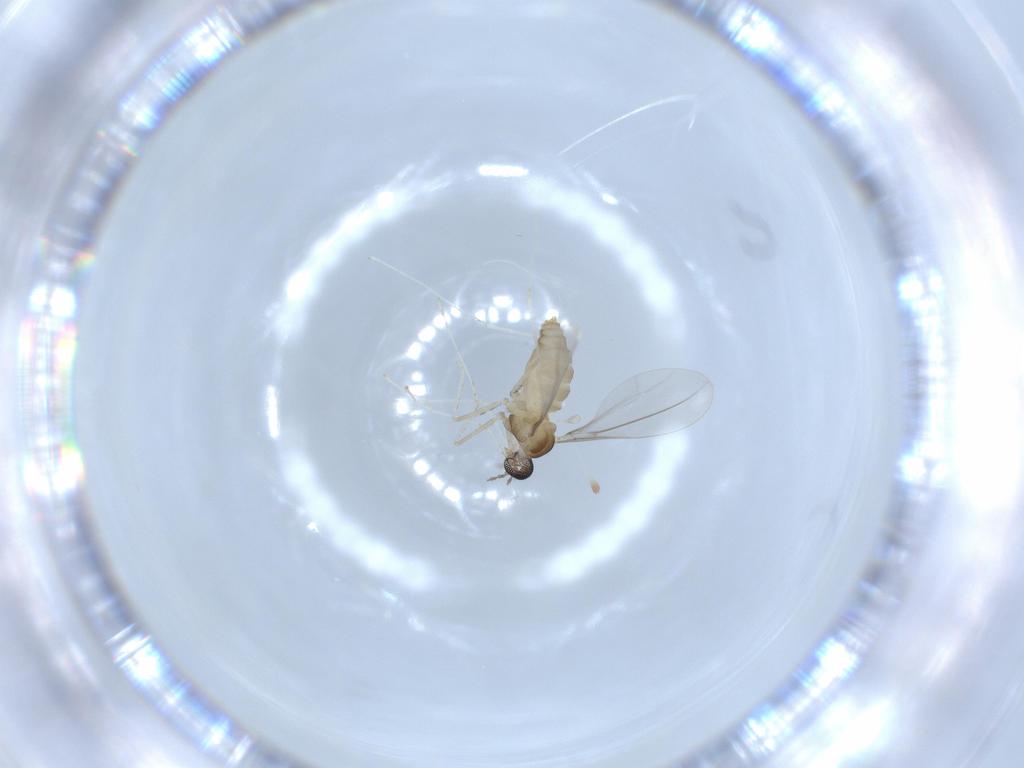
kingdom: Animalia
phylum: Arthropoda
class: Insecta
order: Diptera
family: Cecidomyiidae
